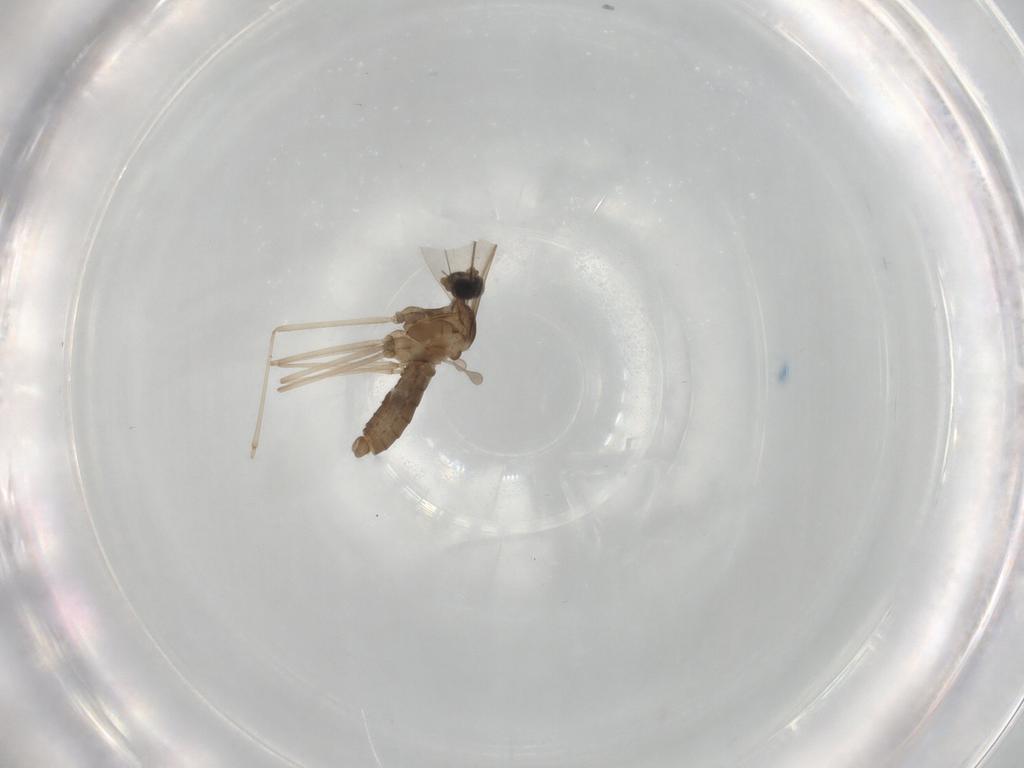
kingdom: Animalia
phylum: Arthropoda
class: Insecta
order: Diptera
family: Cecidomyiidae
